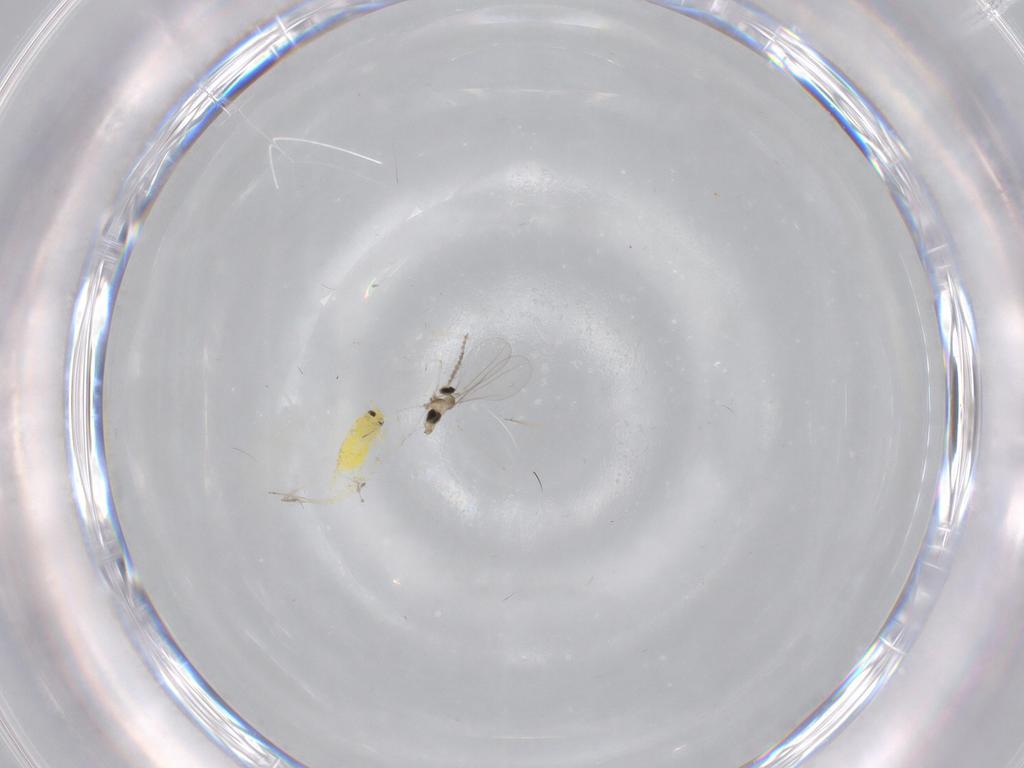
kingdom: Animalia
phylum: Arthropoda
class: Insecta
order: Diptera
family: Cecidomyiidae
